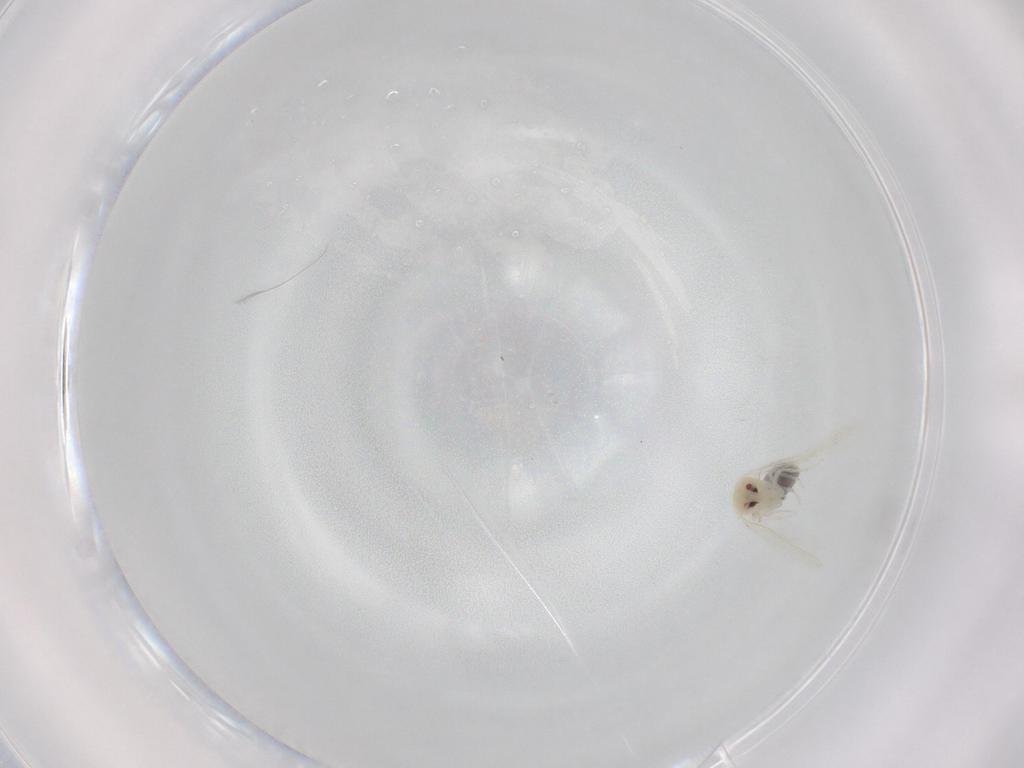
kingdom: Animalia
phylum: Arthropoda
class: Insecta
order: Hemiptera
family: Aleyrodidae
